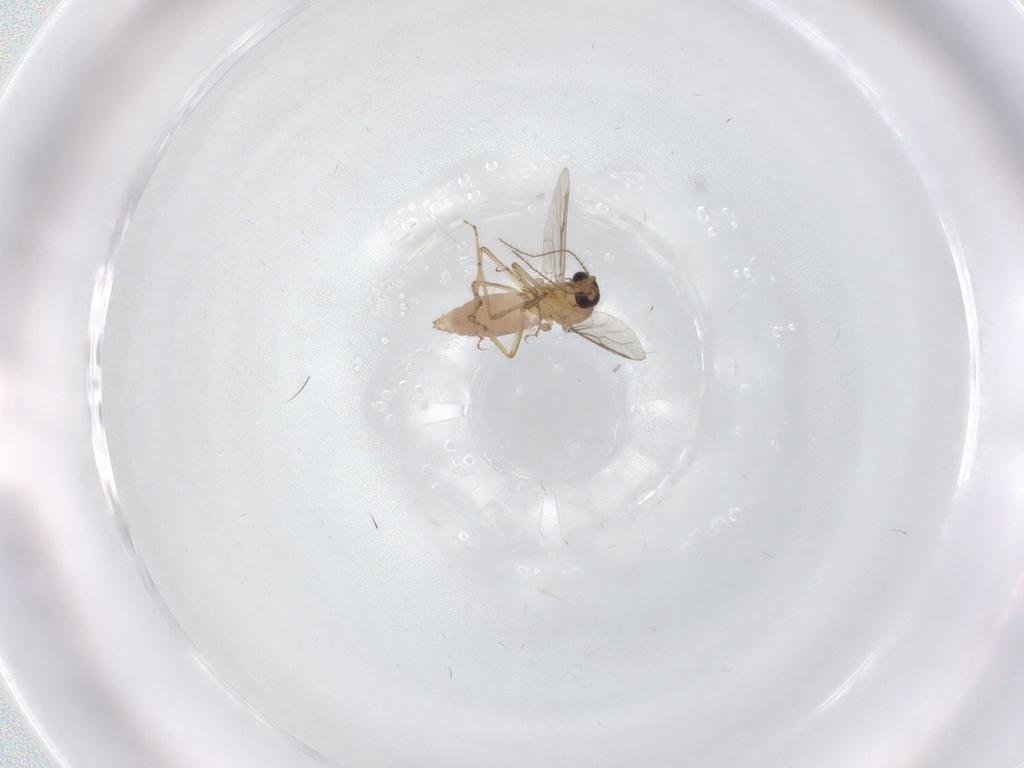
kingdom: Animalia
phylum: Arthropoda
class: Insecta
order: Diptera
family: Ceratopogonidae
